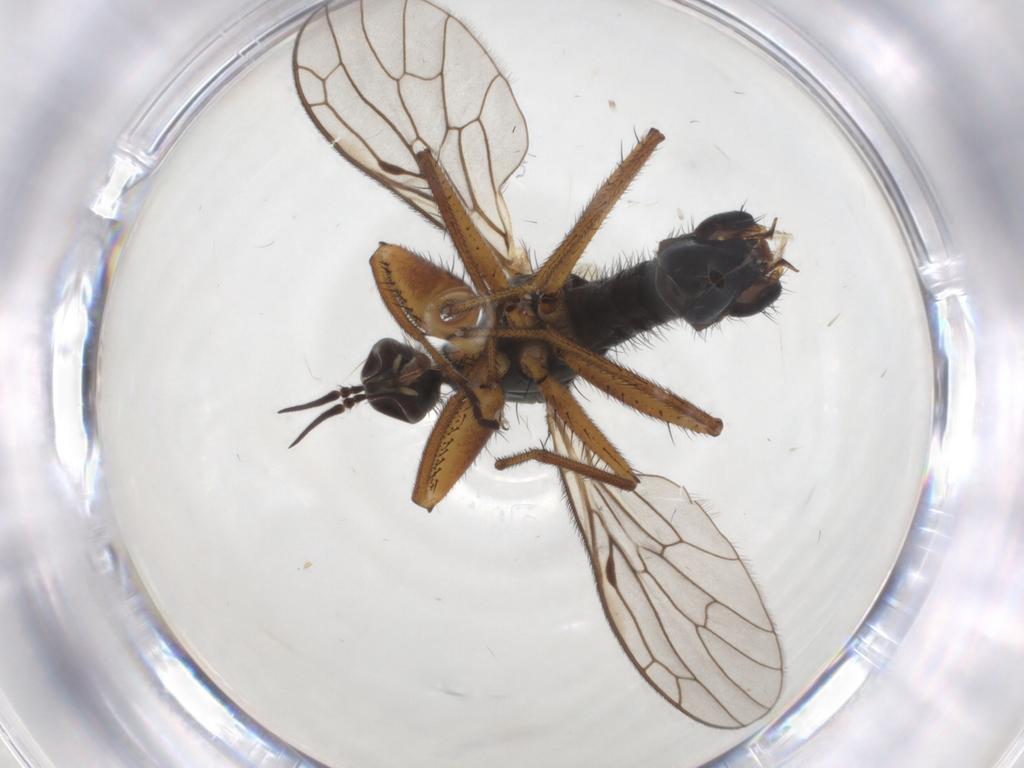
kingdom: Animalia
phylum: Arthropoda
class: Insecta
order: Diptera
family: Empididae
